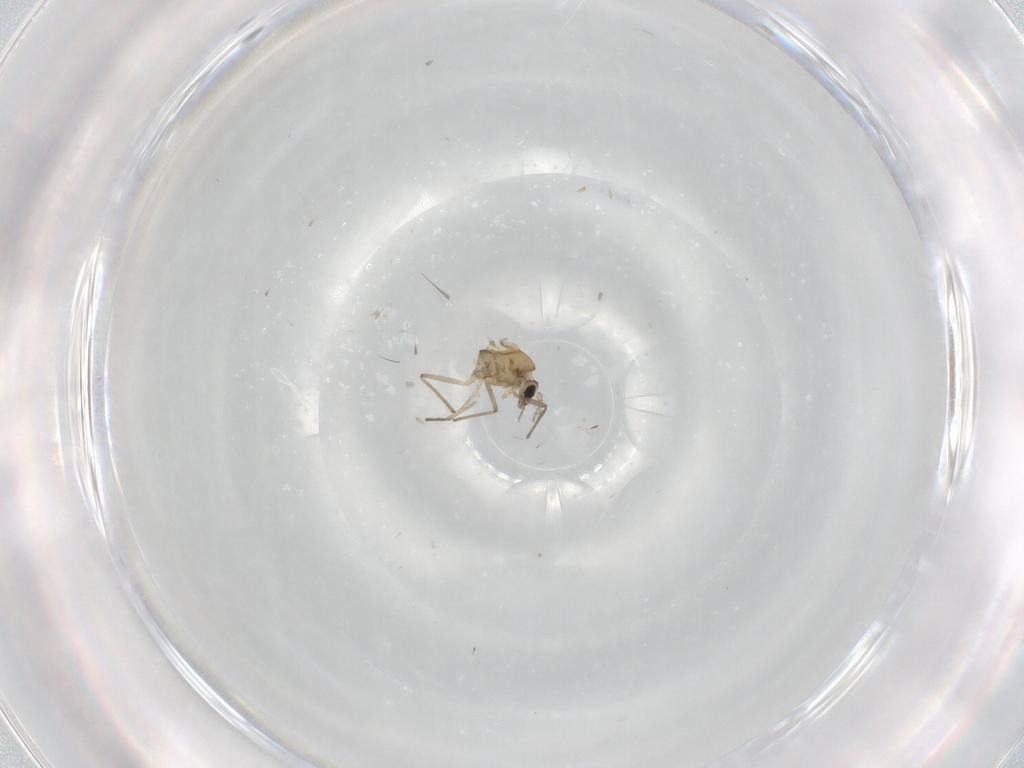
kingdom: Animalia
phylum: Arthropoda
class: Insecta
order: Diptera
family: Chironomidae
